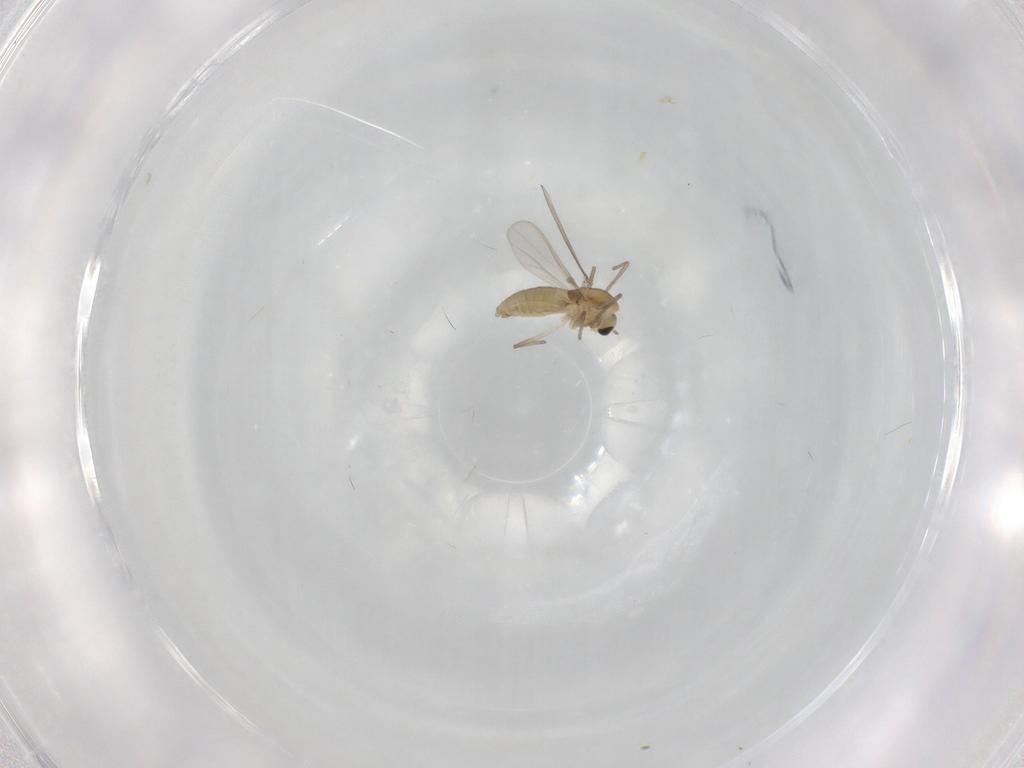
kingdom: Animalia
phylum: Arthropoda
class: Insecta
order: Diptera
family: Chironomidae
